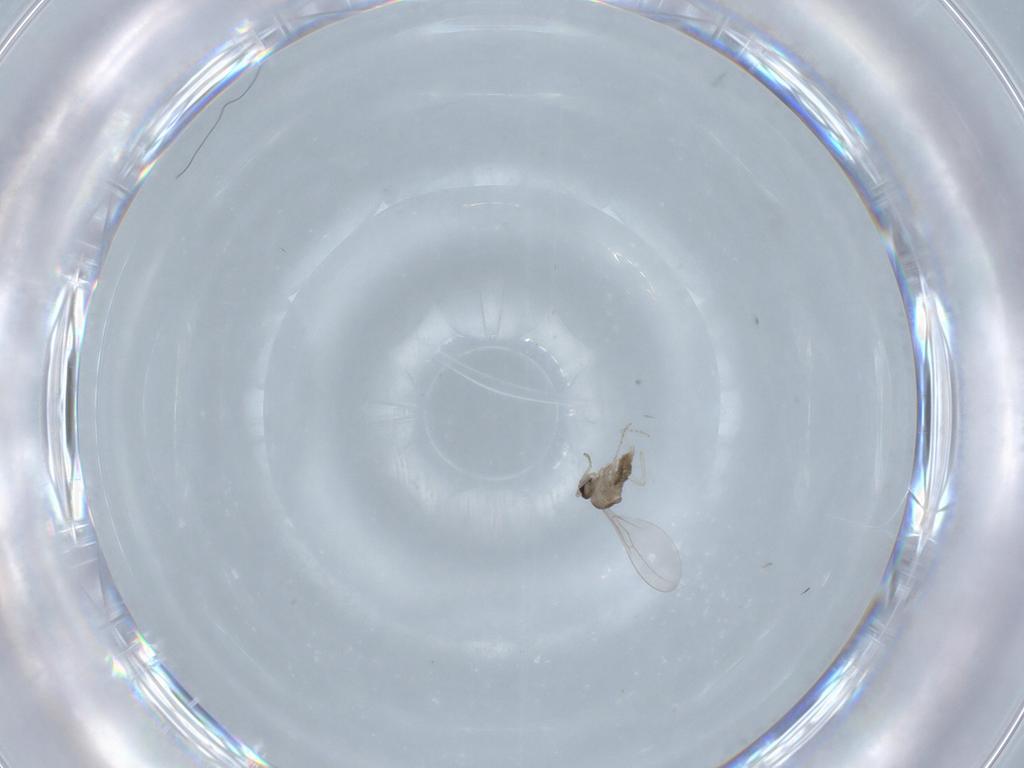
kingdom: Animalia
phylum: Arthropoda
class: Insecta
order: Diptera
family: Cecidomyiidae
